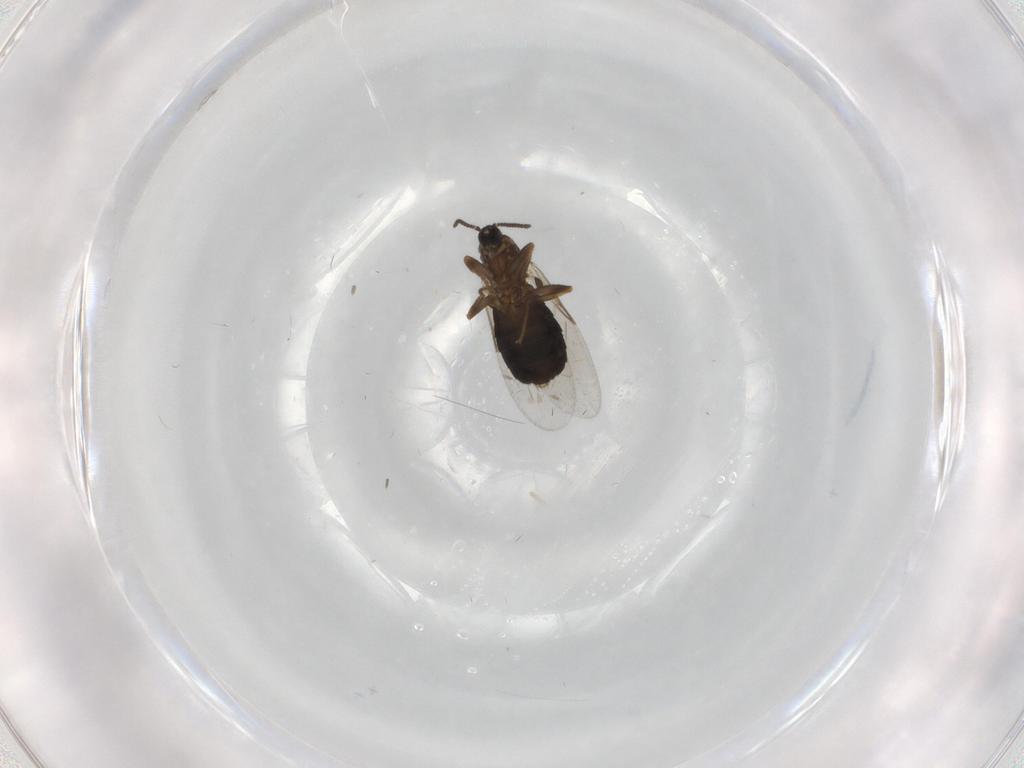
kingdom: Animalia
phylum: Arthropoda
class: Insecta
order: Diptera
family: Scatopsidae
